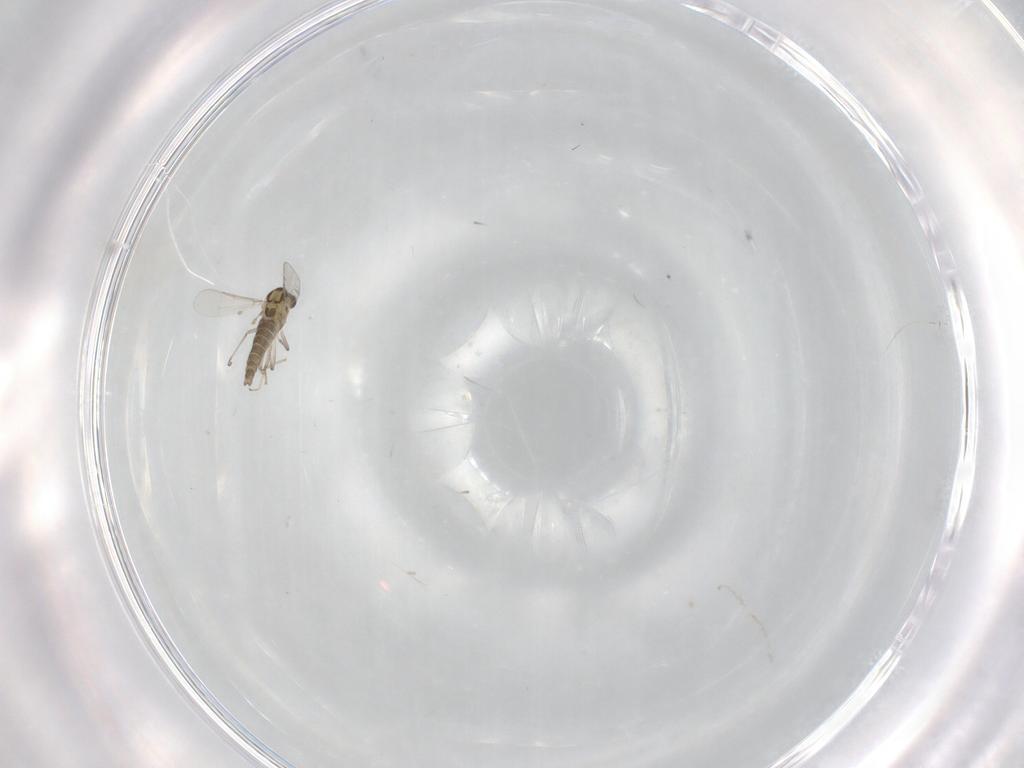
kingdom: Animalia
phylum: Arthropoda
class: Insecta
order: Diptera
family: Chironomidae
